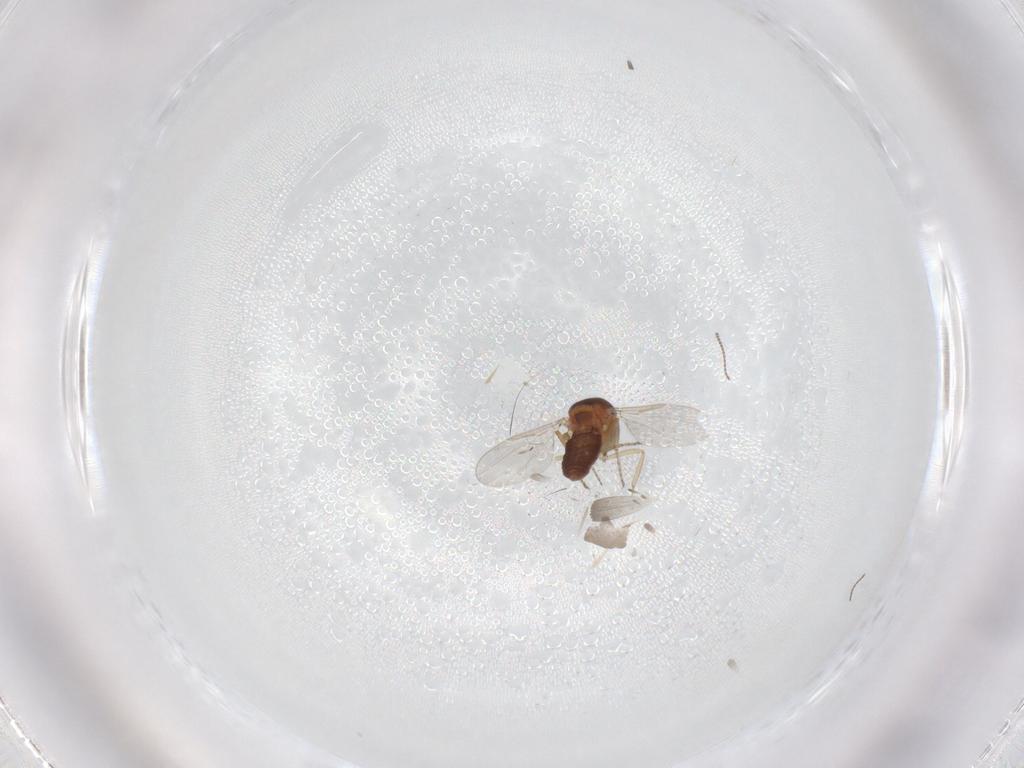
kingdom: Animalia
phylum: Arthropoda
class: Insecta
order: Diptera
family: Ceratopogonidae
